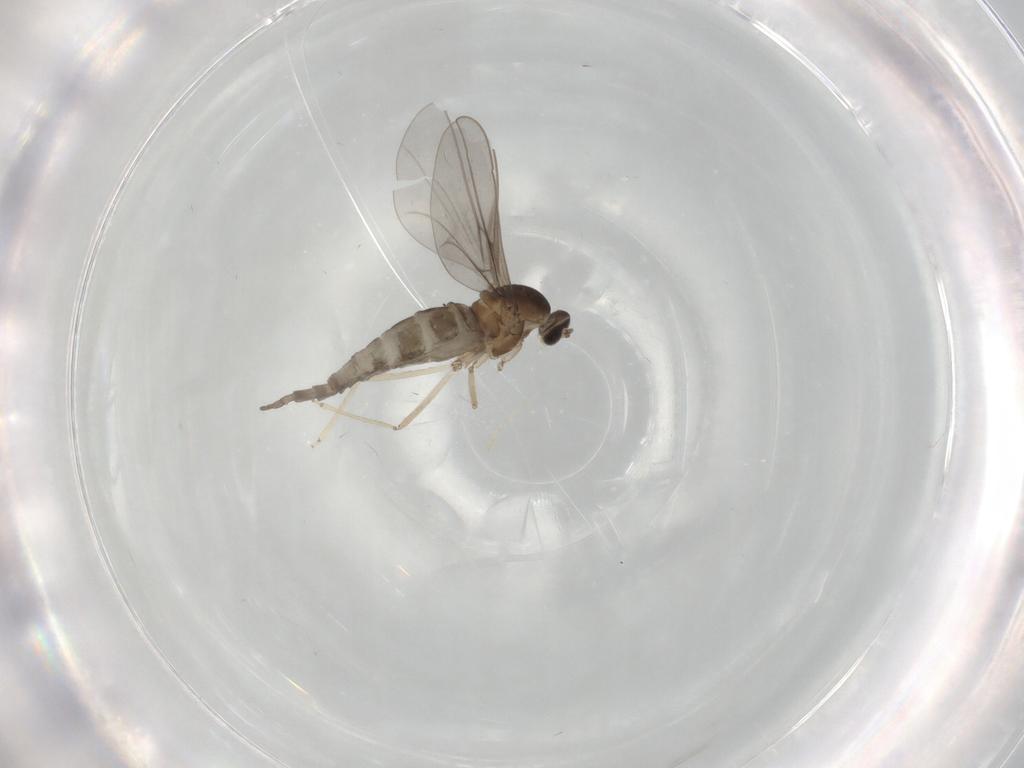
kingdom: Animalia
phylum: Arthropoda
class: Insecta
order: Diptera
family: Cecidomyiidae
